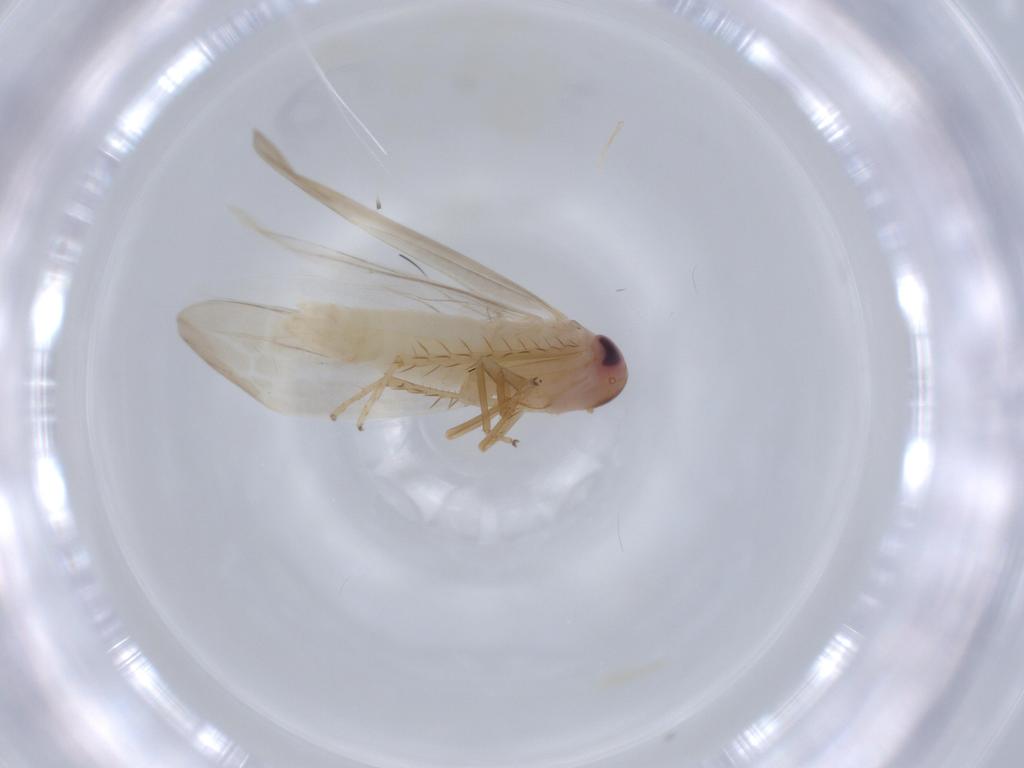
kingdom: Animalia
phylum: Arthropoda
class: Insecta
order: Hemiptera
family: Cicadellidae
